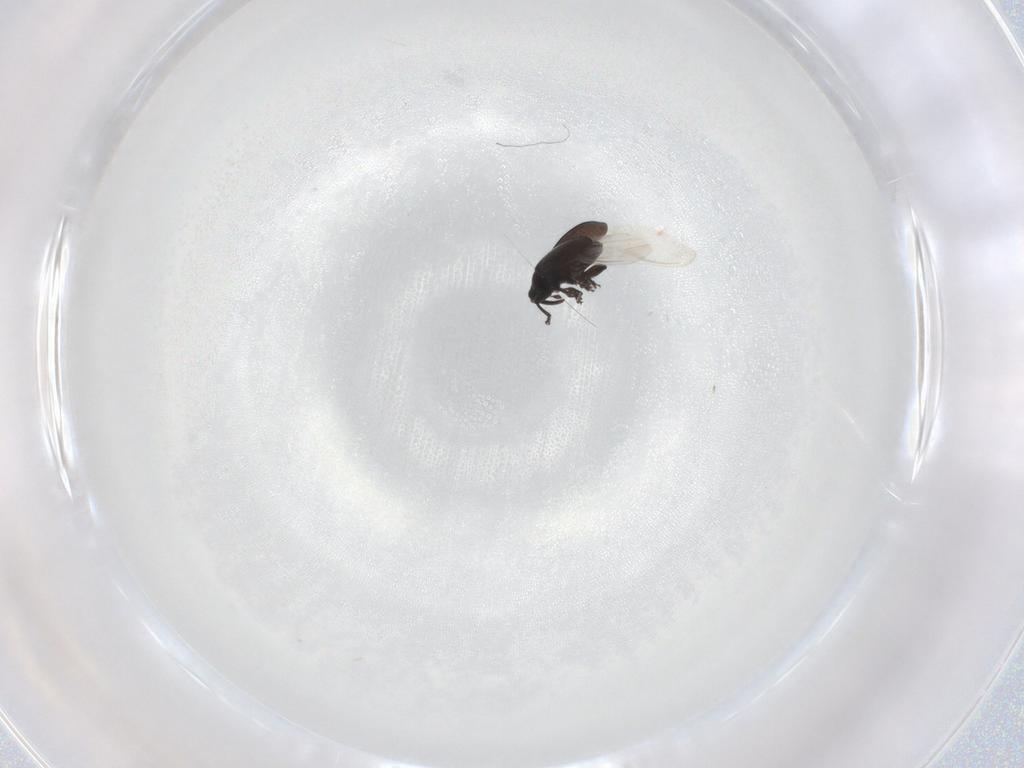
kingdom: Animalia
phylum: Arthropoda
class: Insecta
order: Coleoptera
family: Curculionidae
